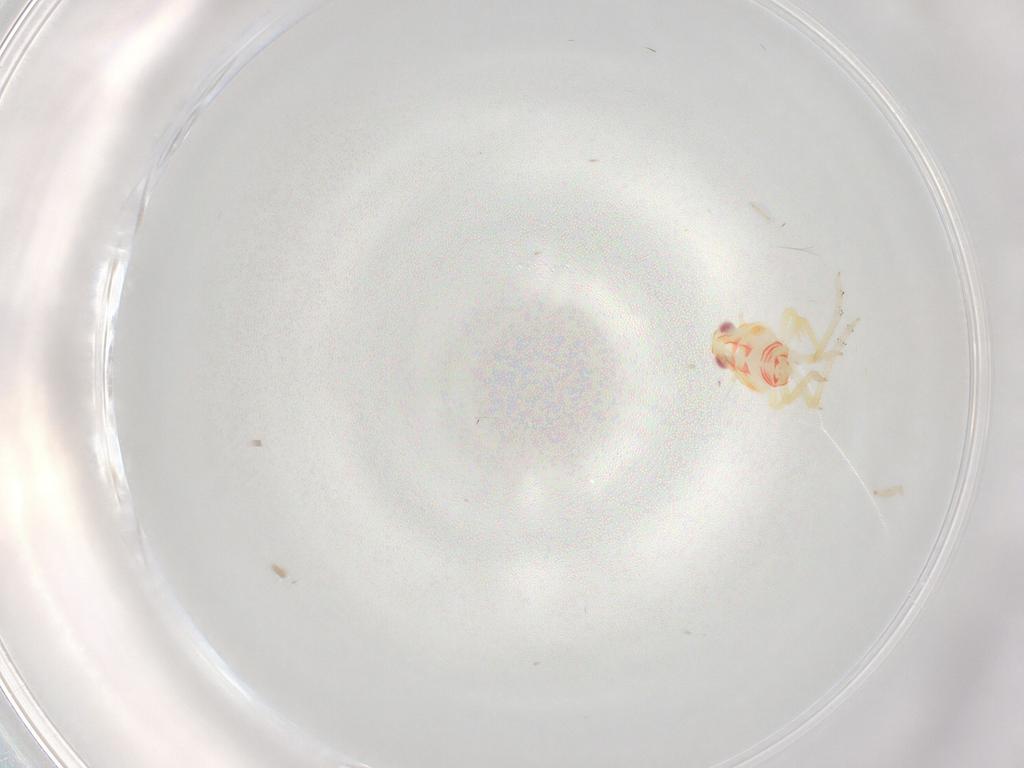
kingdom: Animalia
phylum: Arthropoda
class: Insecta
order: Hemiptera
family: Tropiduchidae
